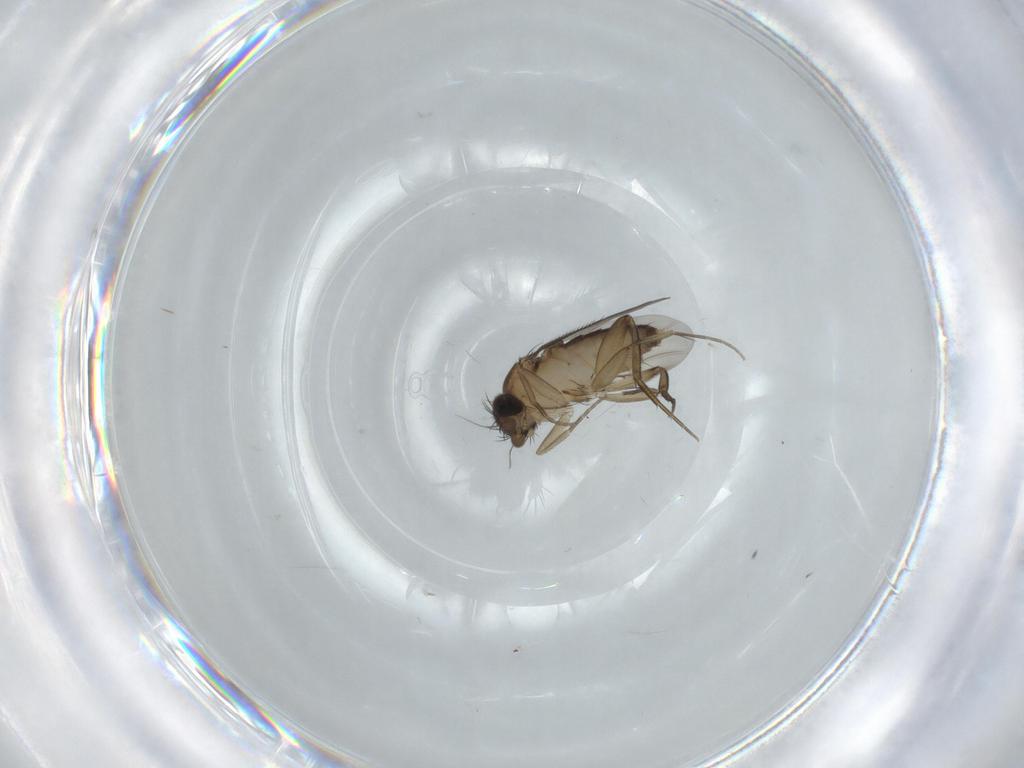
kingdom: Animalia
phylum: Arthropoda
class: Insecta
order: Diptera
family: Phoridae
